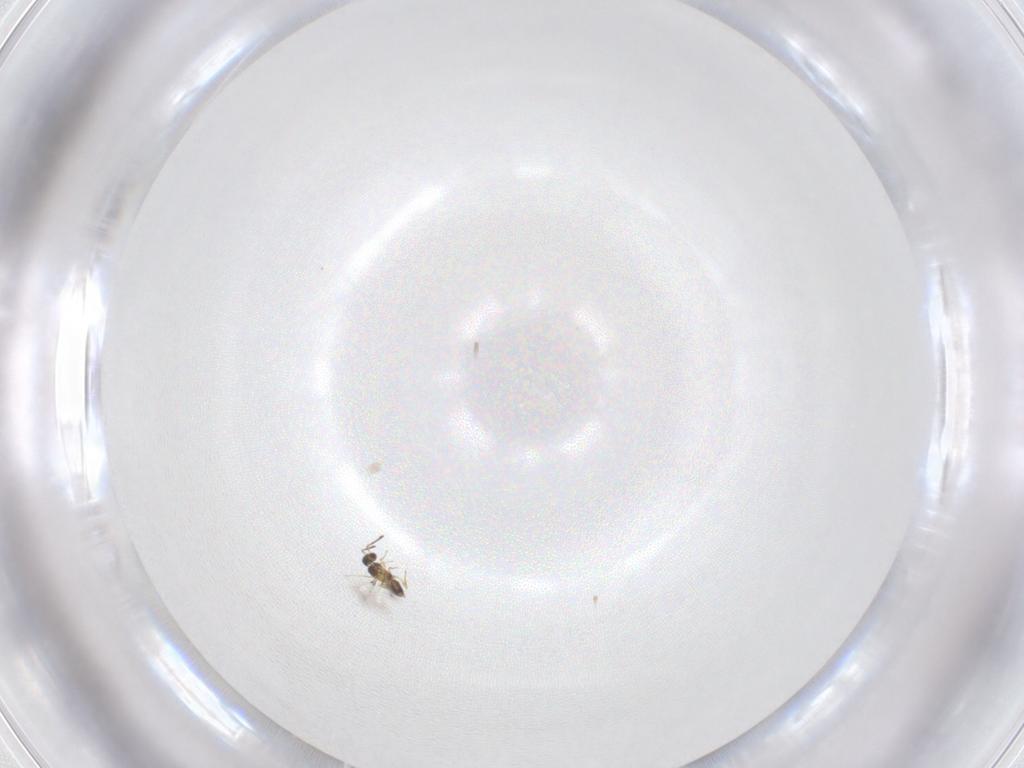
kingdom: Animalia
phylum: Arthropoda
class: Insecta
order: Hymenoptera
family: Mymaridae
